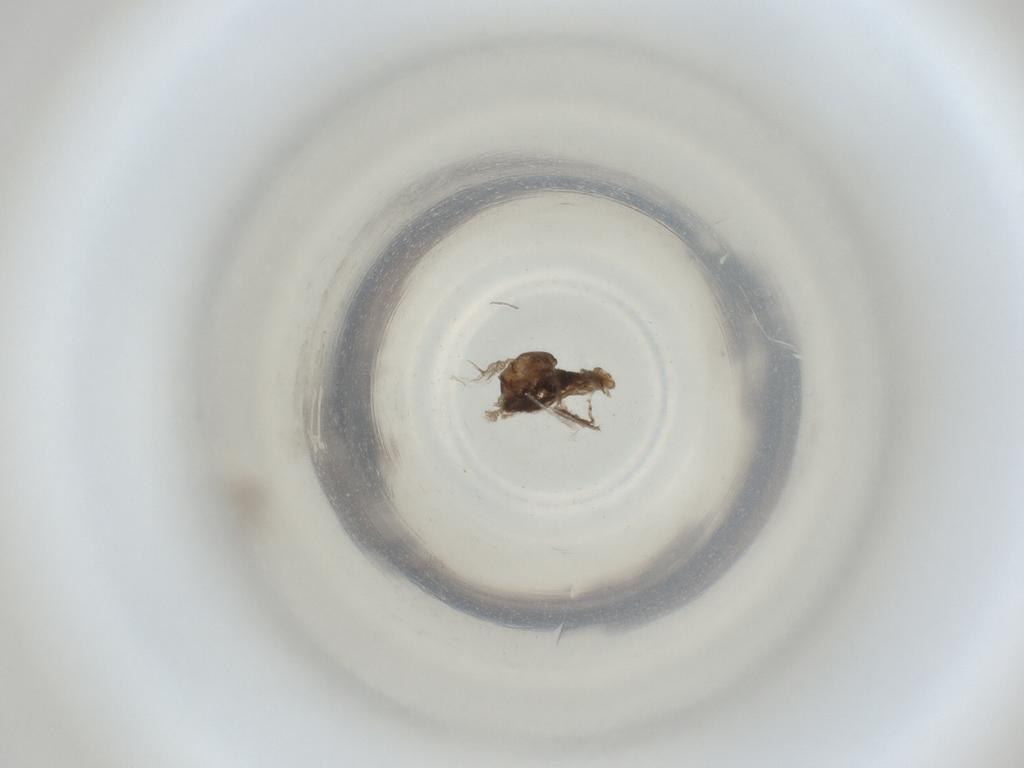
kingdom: Animalia
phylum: Arthropoda
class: Insecta
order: Diptera
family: Cecidomyiidae
